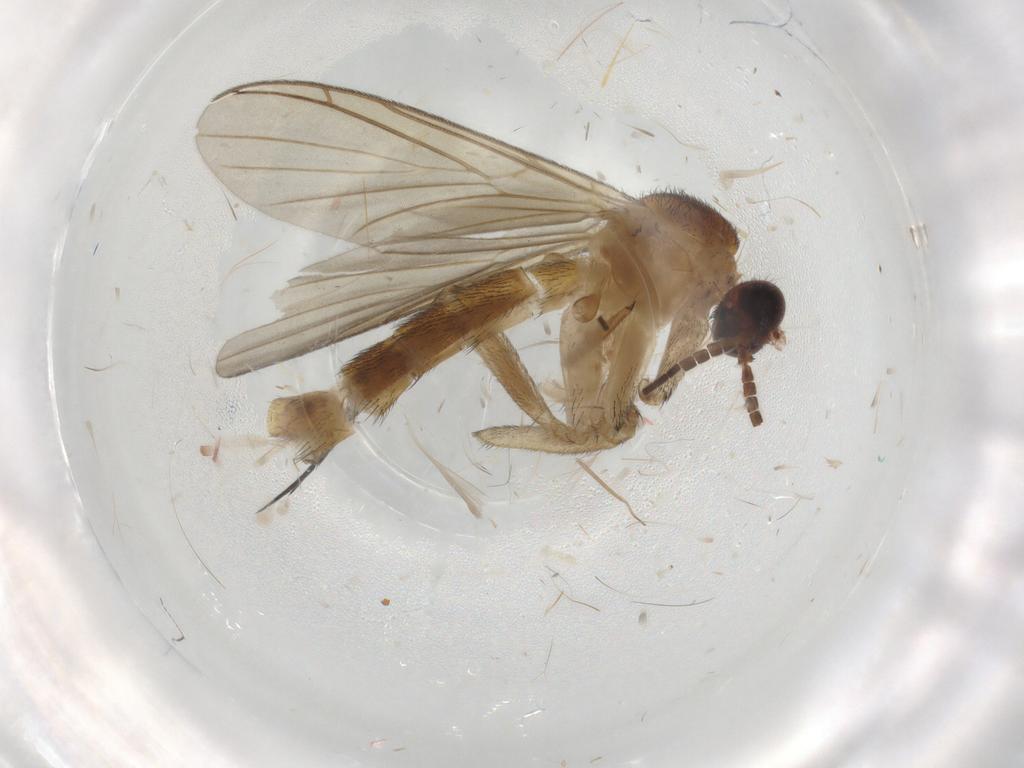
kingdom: Animalia
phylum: Arthropoda
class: Insecta
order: Diptera
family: Keroplatidae
